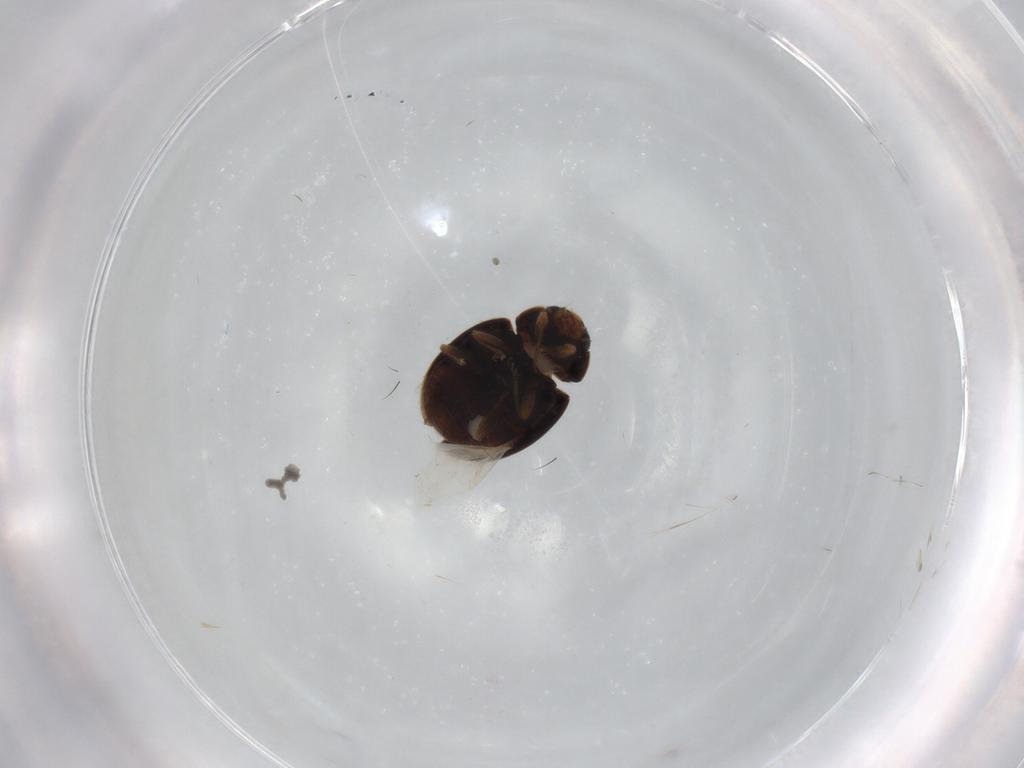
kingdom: Animalia
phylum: Arthropoda
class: Insecta
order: Coleoptera
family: Coccinellidae
